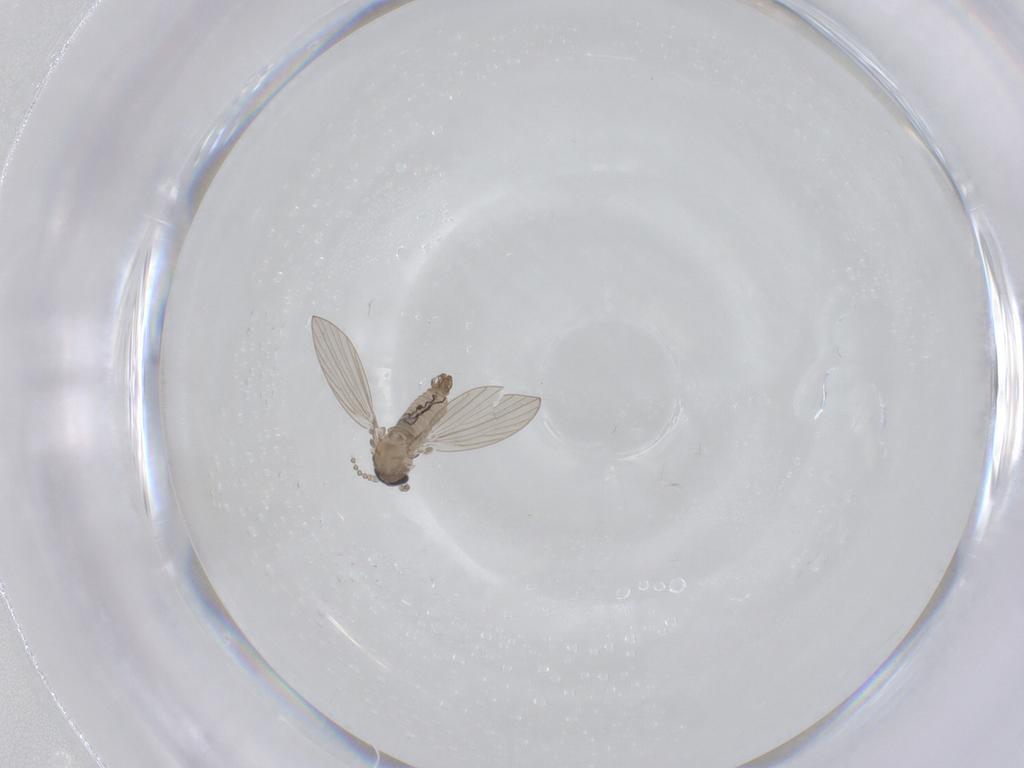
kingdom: Animalia
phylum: Arthropoda
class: Insecta
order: Diptera
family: Psychodidae
